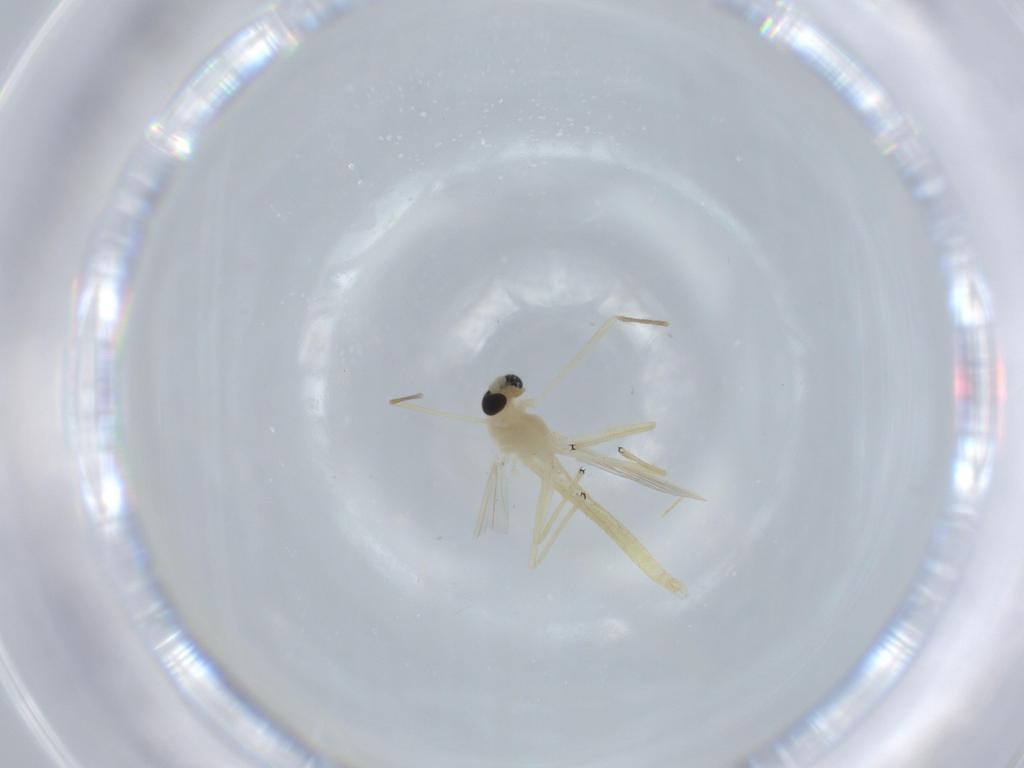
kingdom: Animalia
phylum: Arthropoda
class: Insecta
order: Diptera
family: Cecidomyiidae
